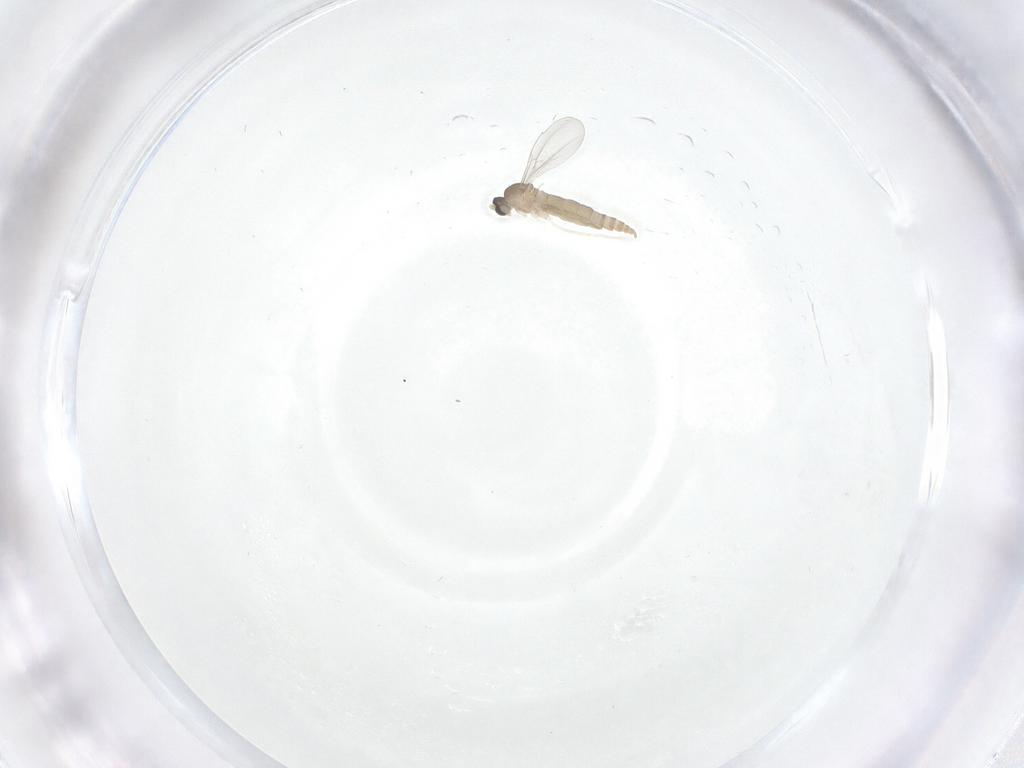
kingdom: Animalia
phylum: Arthropoda
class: Insecta
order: Diptera
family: Cecidomyiidae
